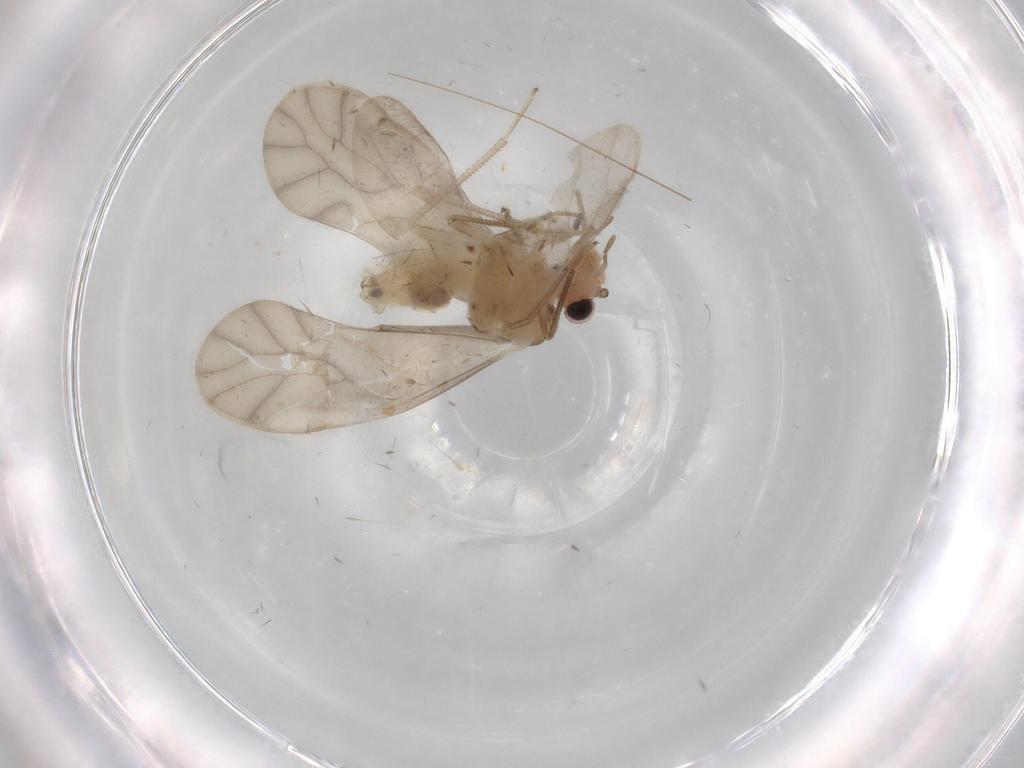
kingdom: Animalia
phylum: Arthropoda
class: Insecta
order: Psocodea
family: Caeciliusidae
